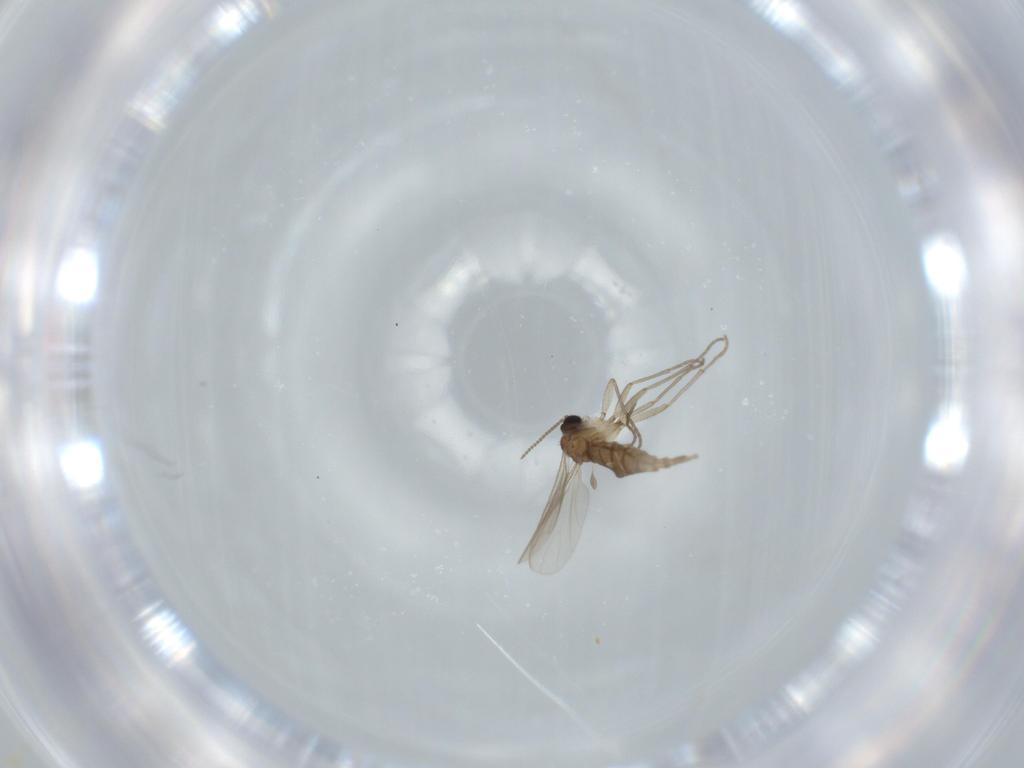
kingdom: Animalia
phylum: Arthropoda
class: Insecta
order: Diptera
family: Sciaridae
